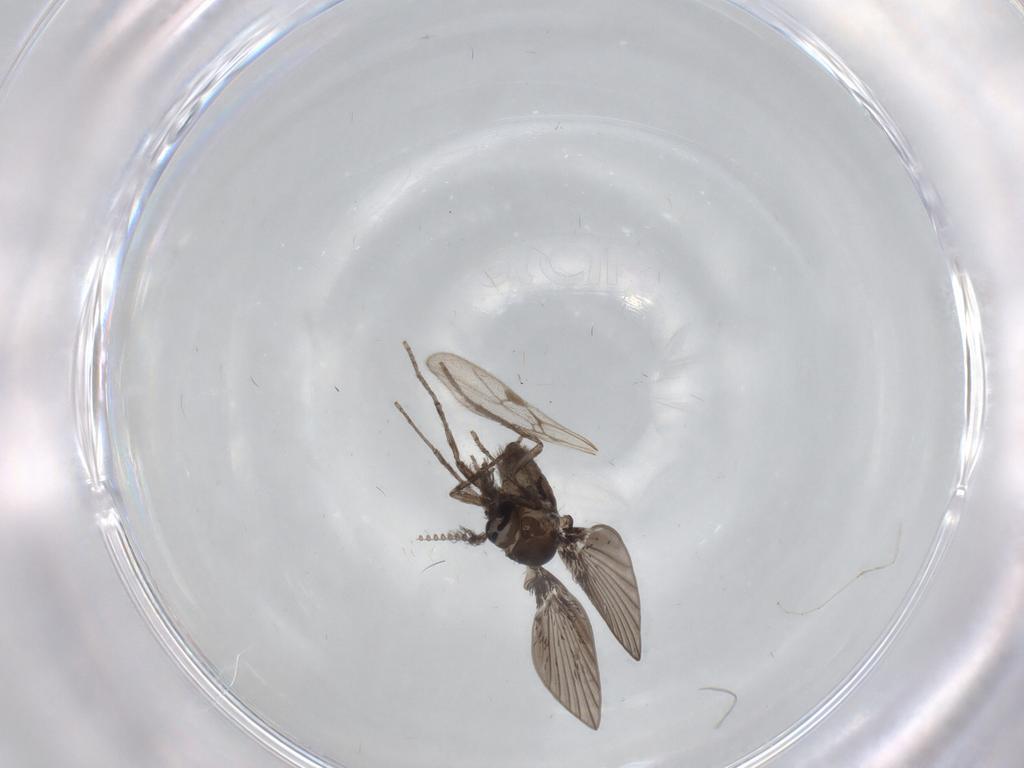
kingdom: Animalia
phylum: Arthropoda
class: Insecta
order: Diptera
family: Psychodidae
